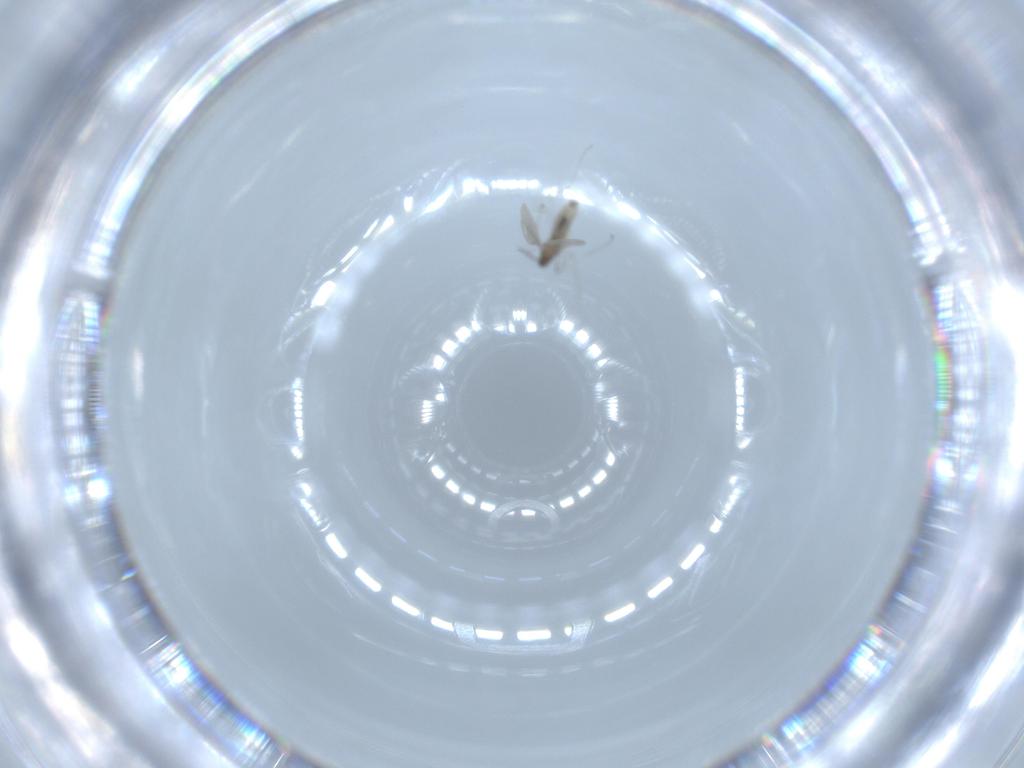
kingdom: Animalia
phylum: Arthropoda
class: Insecta
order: Diptera
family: Cecidomyiidae
